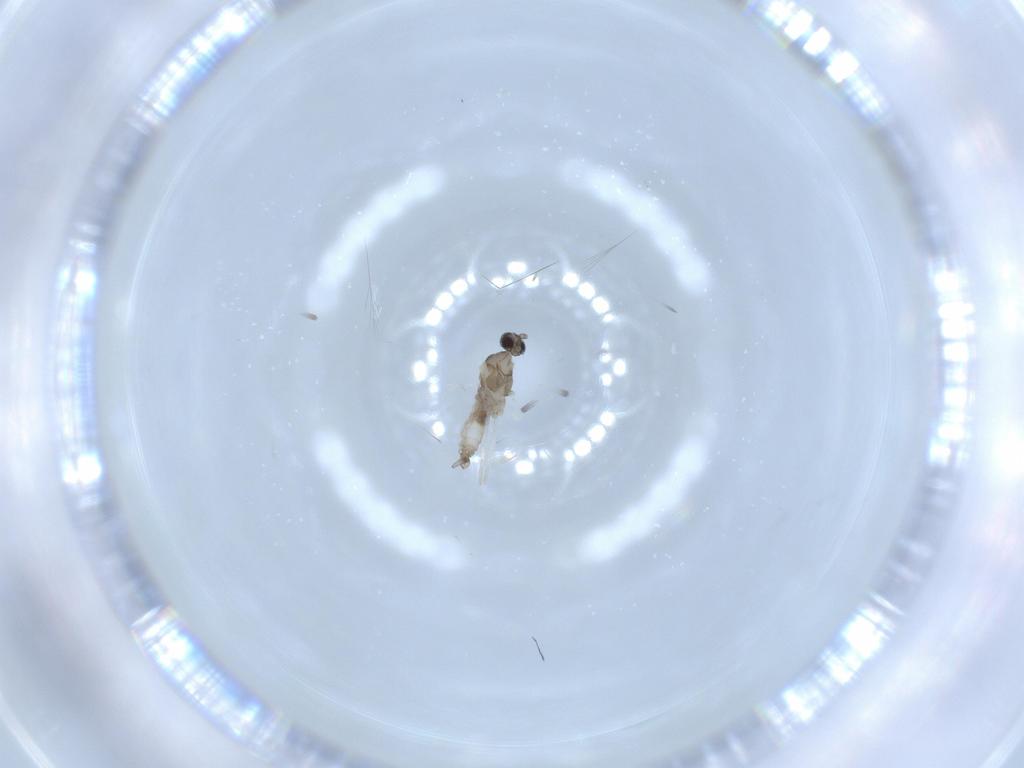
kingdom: Animalia
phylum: Arthropoda
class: Insecta
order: Diptera
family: Cecidomyiidae
